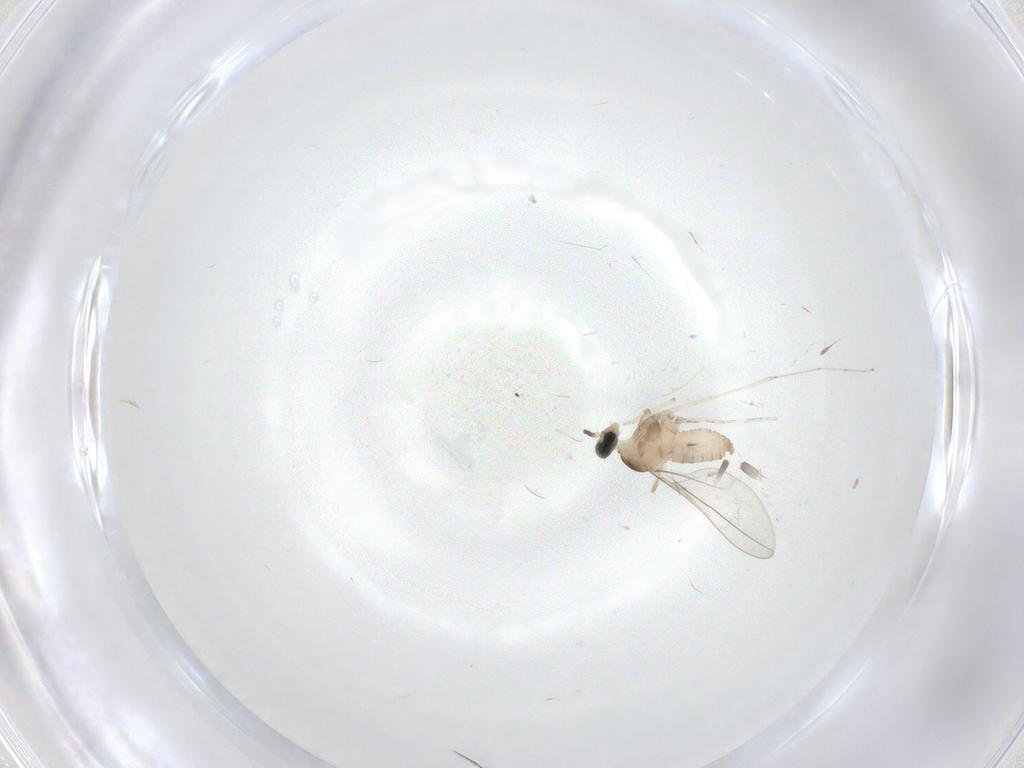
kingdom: Animalia
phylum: Arthropoda
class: Insecta
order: Diptera
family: Cecidomyiidae
